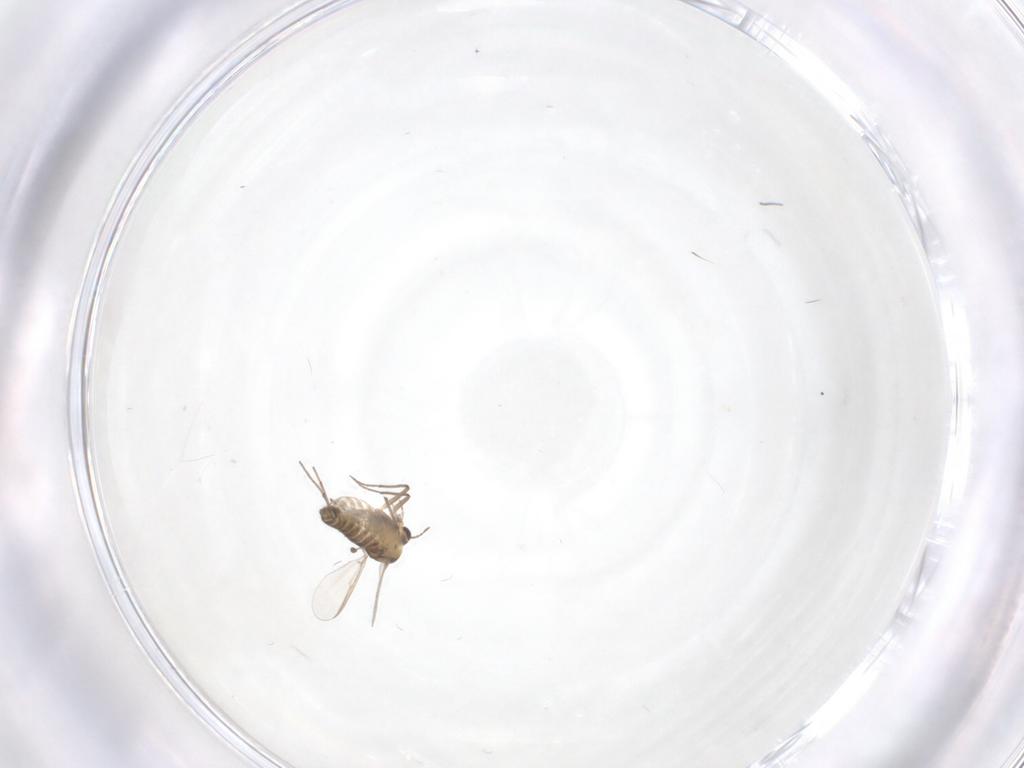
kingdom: Animalia
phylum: Arthropoda
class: Insecta
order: Diptera
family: Chironomidae
